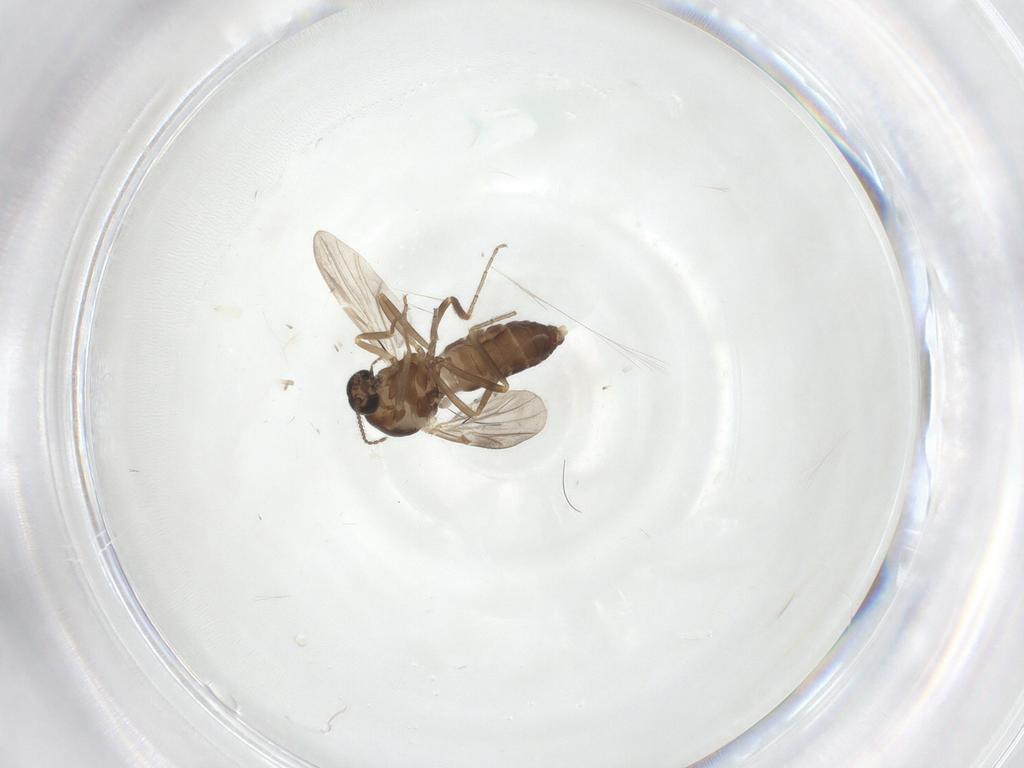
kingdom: Animalia
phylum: Arthropoda
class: Insecta
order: Diptera
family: Ceratopogonidae
